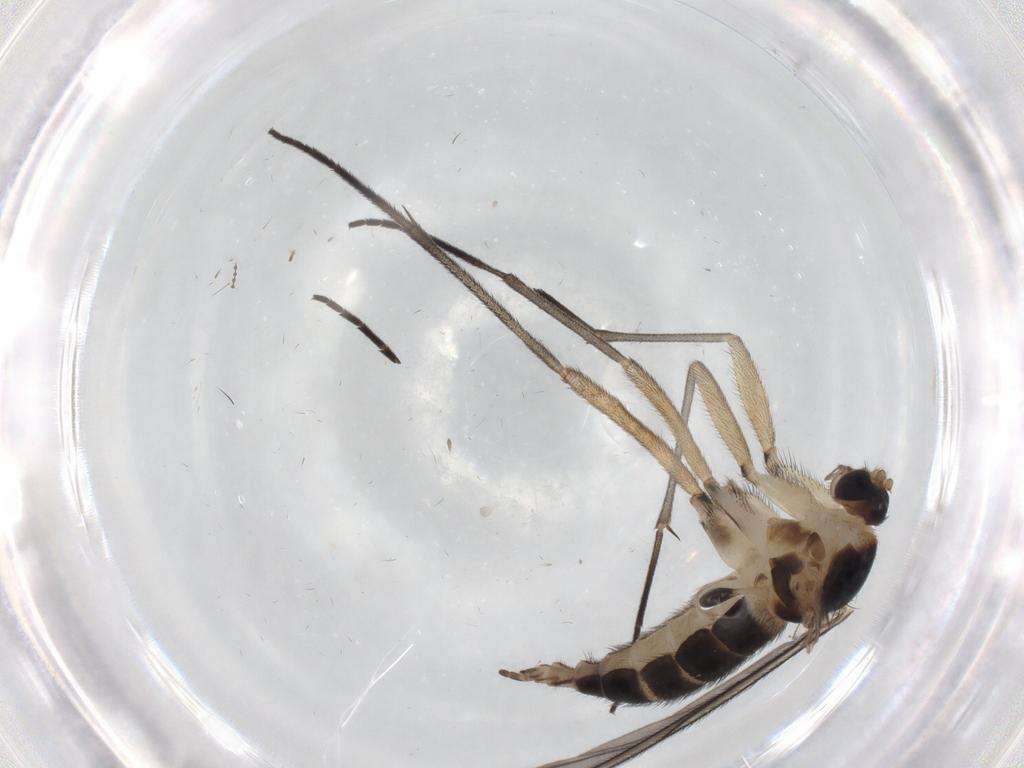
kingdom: Animalia
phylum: Arthropoda
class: Insecta
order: Diptera
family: Sciaridae
